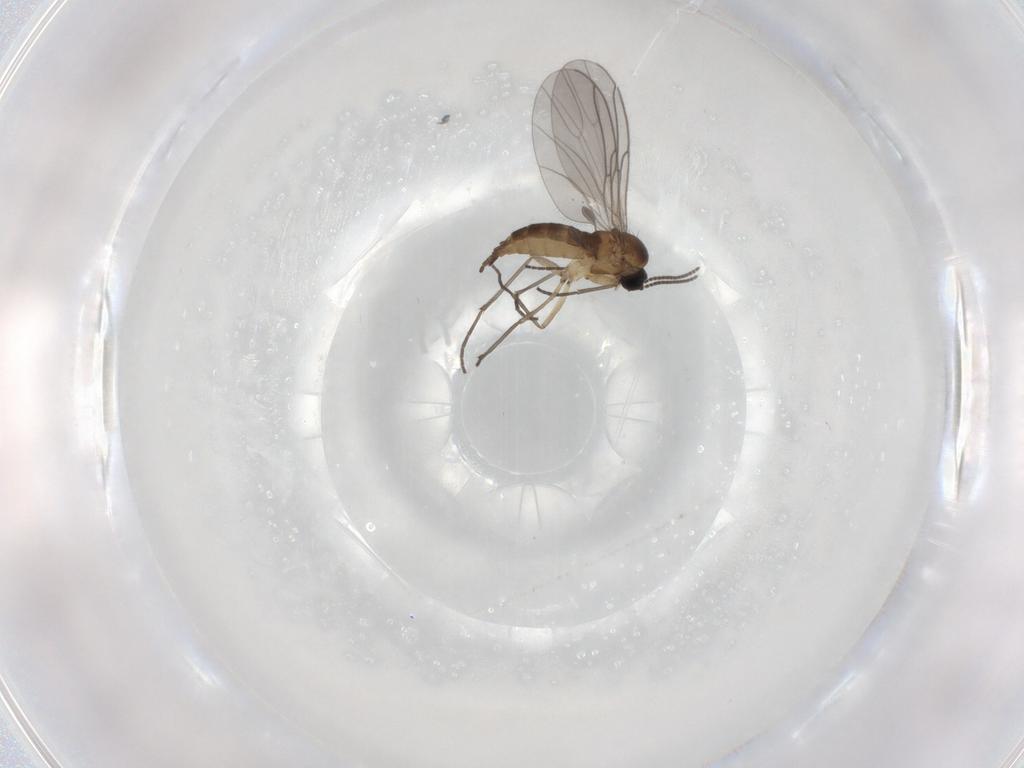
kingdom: Animalia
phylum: Arthropoda
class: Insecta
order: Diptera
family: Sciaridae
